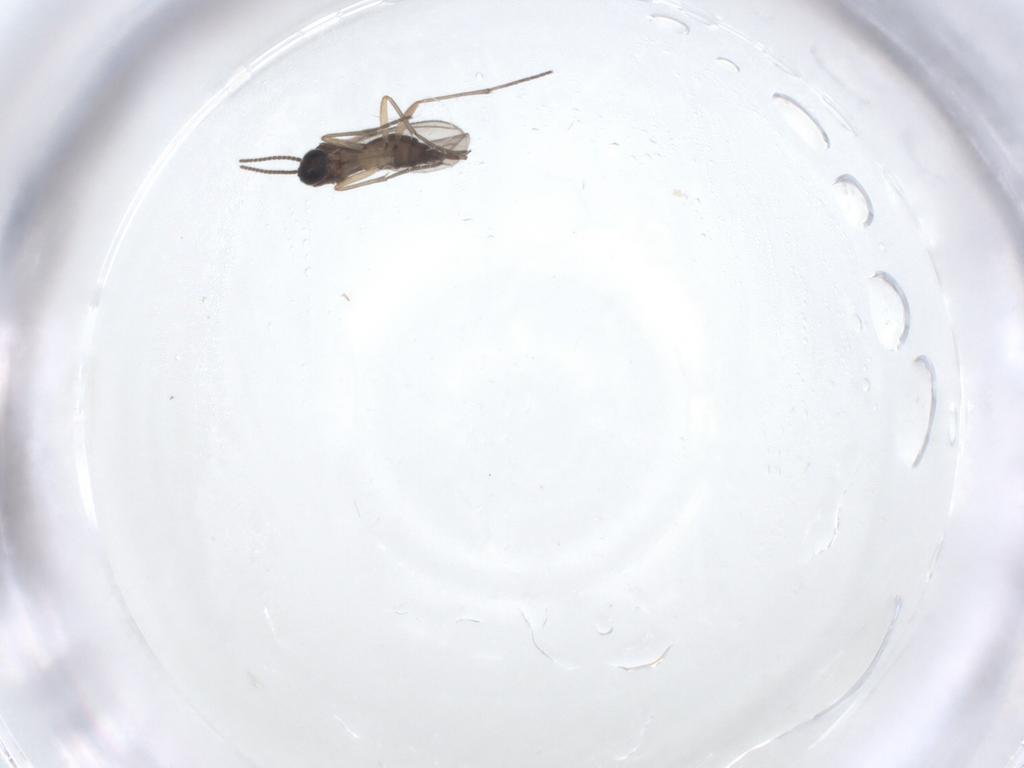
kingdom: Animalia
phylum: Arthropoda
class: Insecta
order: Diptera
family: Sciaridae
